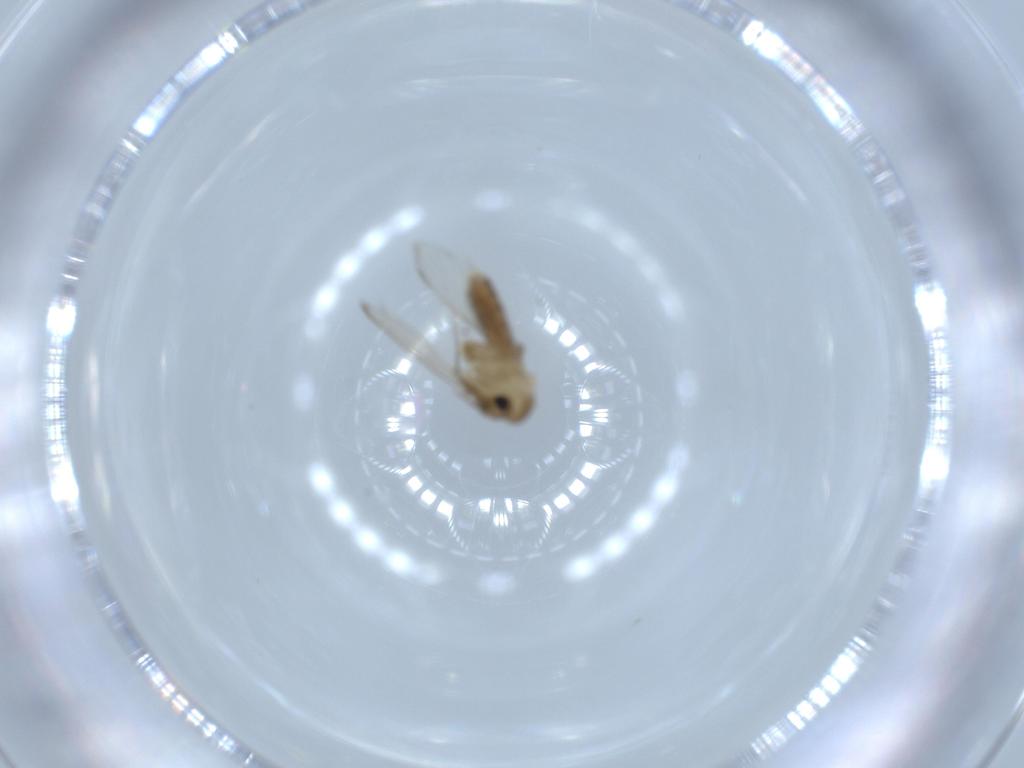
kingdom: Animalia
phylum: Arthropoda
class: Insecta
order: Diptera
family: Psychodidae
